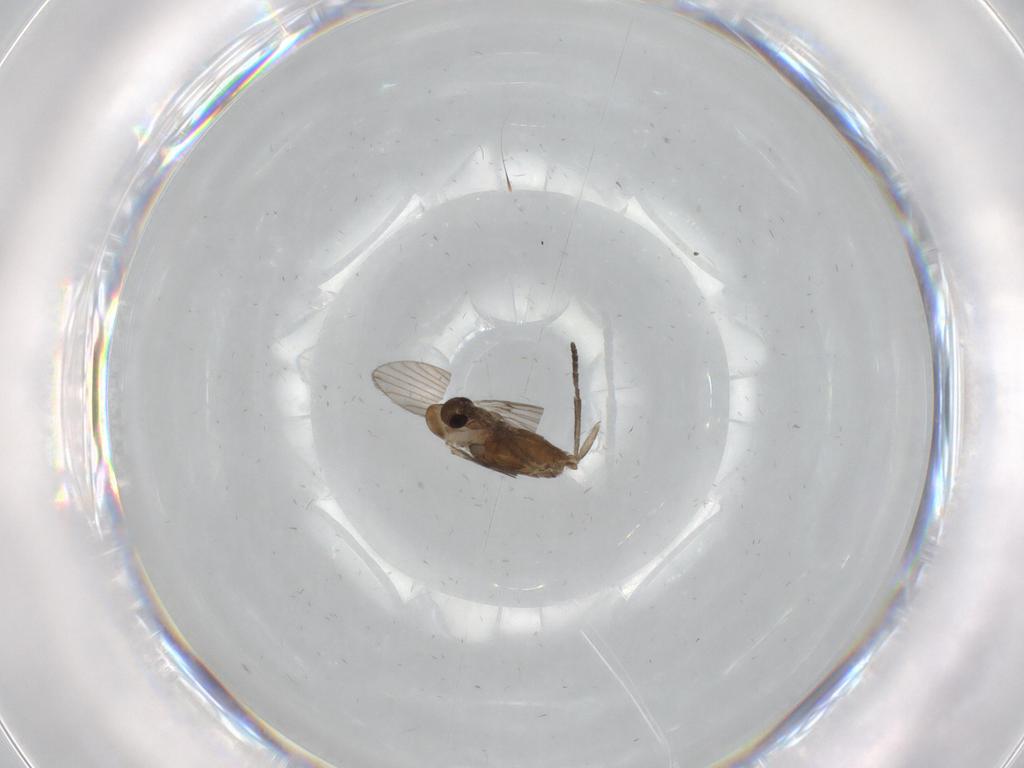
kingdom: Animalia
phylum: Arthropoda
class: Insecta
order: Diptera
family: Psychodidae
